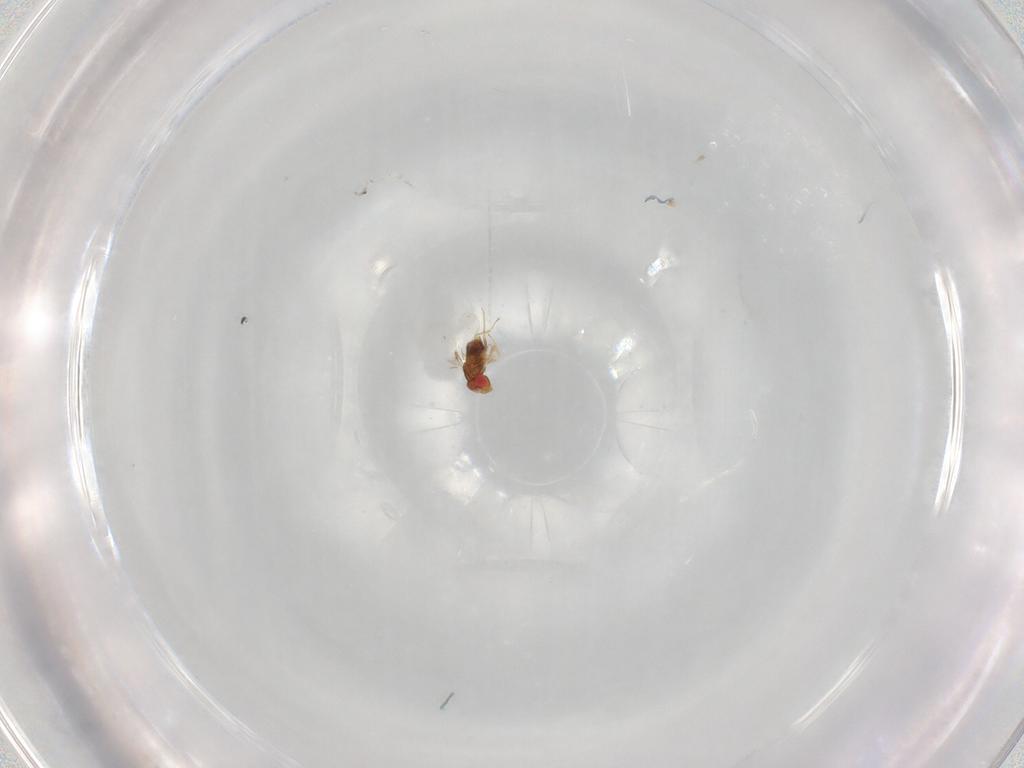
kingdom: Animalia
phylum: Arthropoda
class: Insecta
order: Hymenoptera
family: Trichogrammatidae
